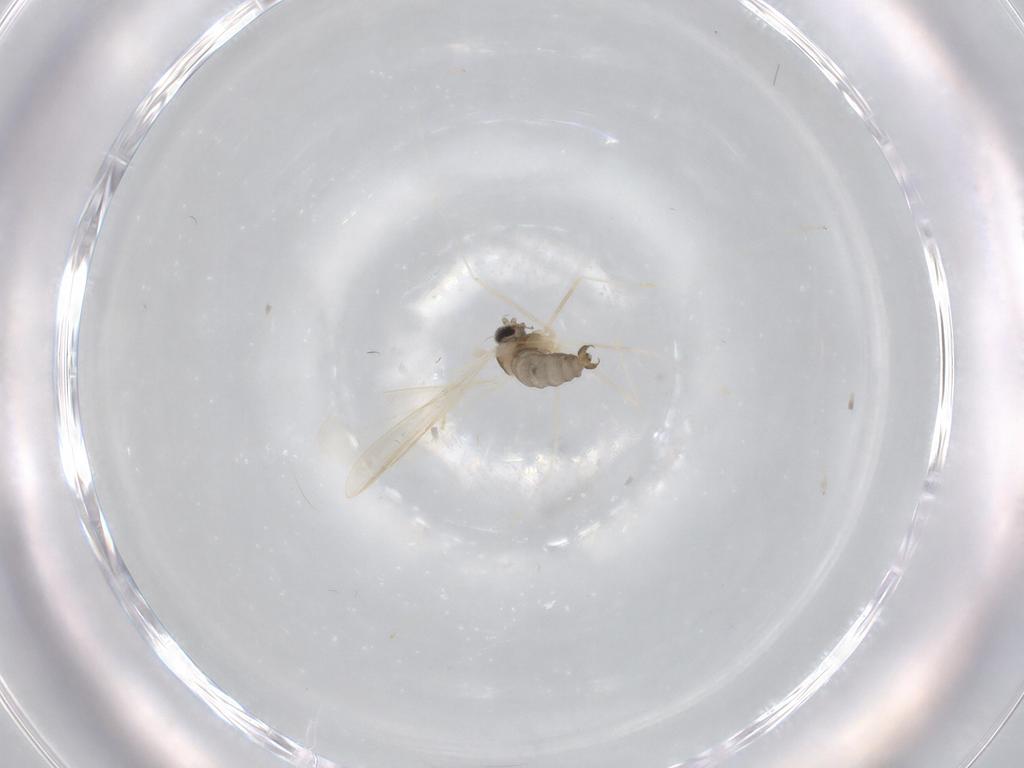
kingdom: Animalia
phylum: Arthropoda
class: Insecta
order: Diptera
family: Cecidomyiidae
